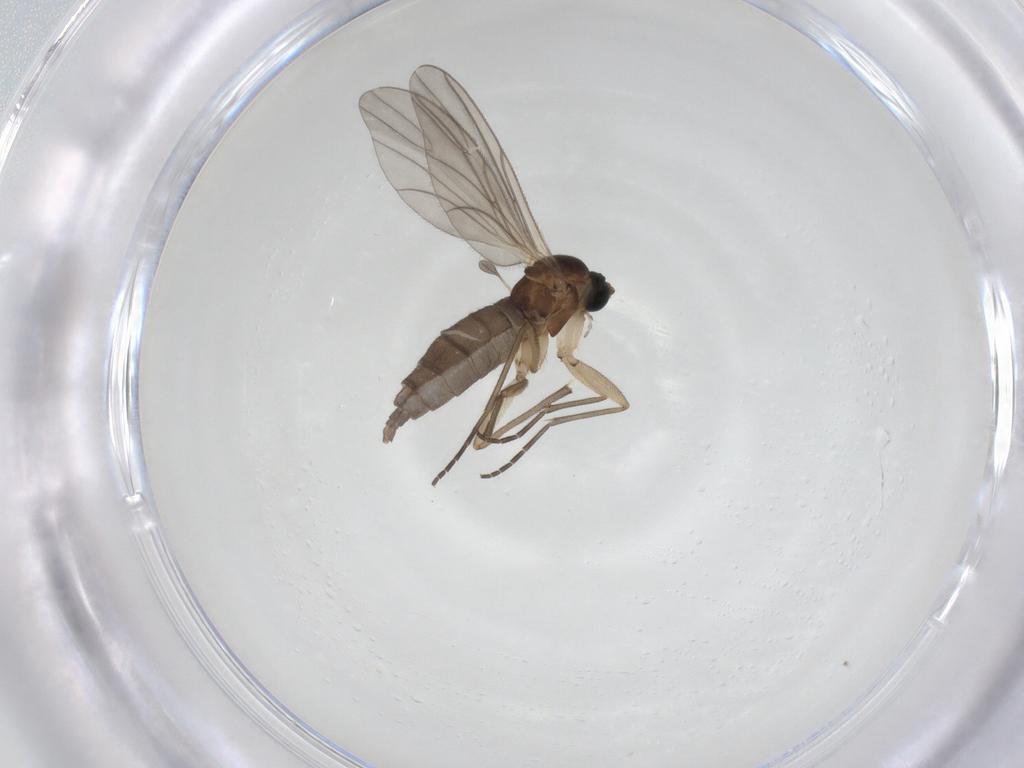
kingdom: Animalia
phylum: Arthropoda
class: Insecta
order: Diptera
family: Sciaridae
